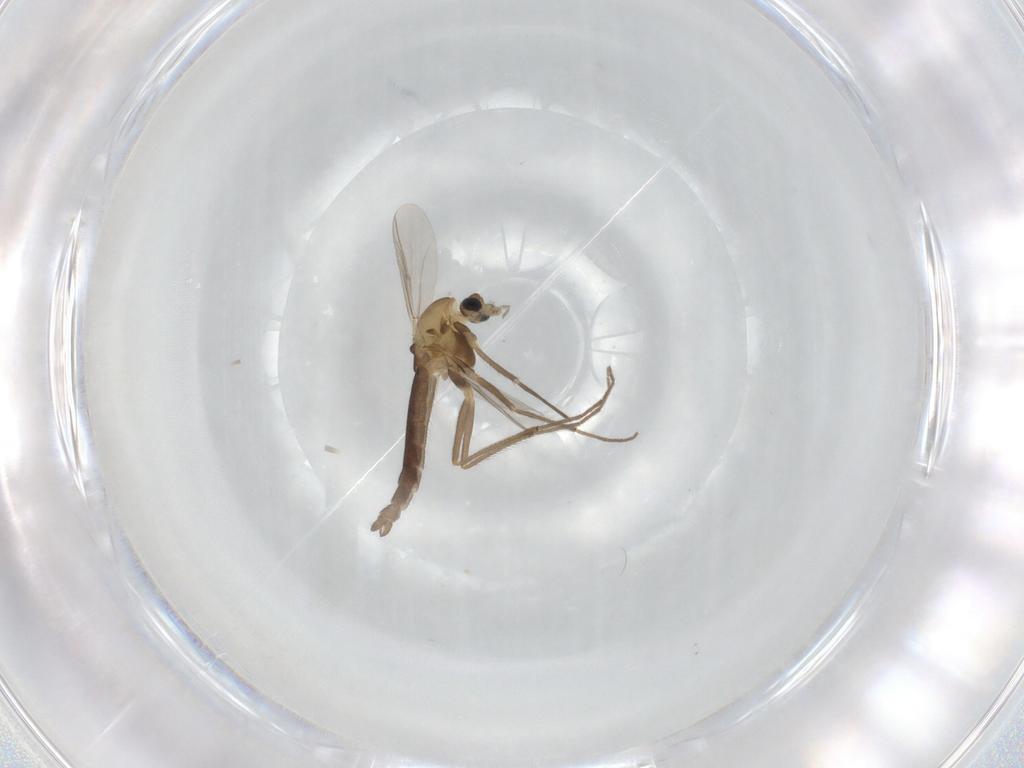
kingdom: Animalia
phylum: Arthropoda
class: Insecta
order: Diptera
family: Chironomidae
